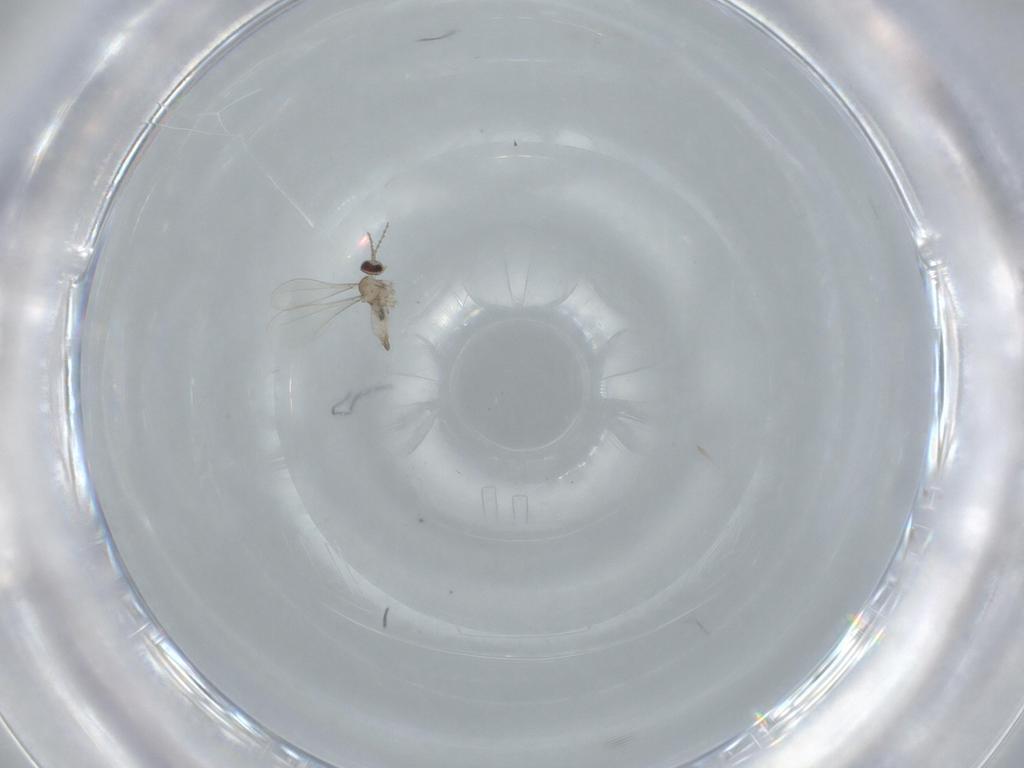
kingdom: Animalia
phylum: Arthropoda
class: Insecta
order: Diptera
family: Cecidomyiidae
